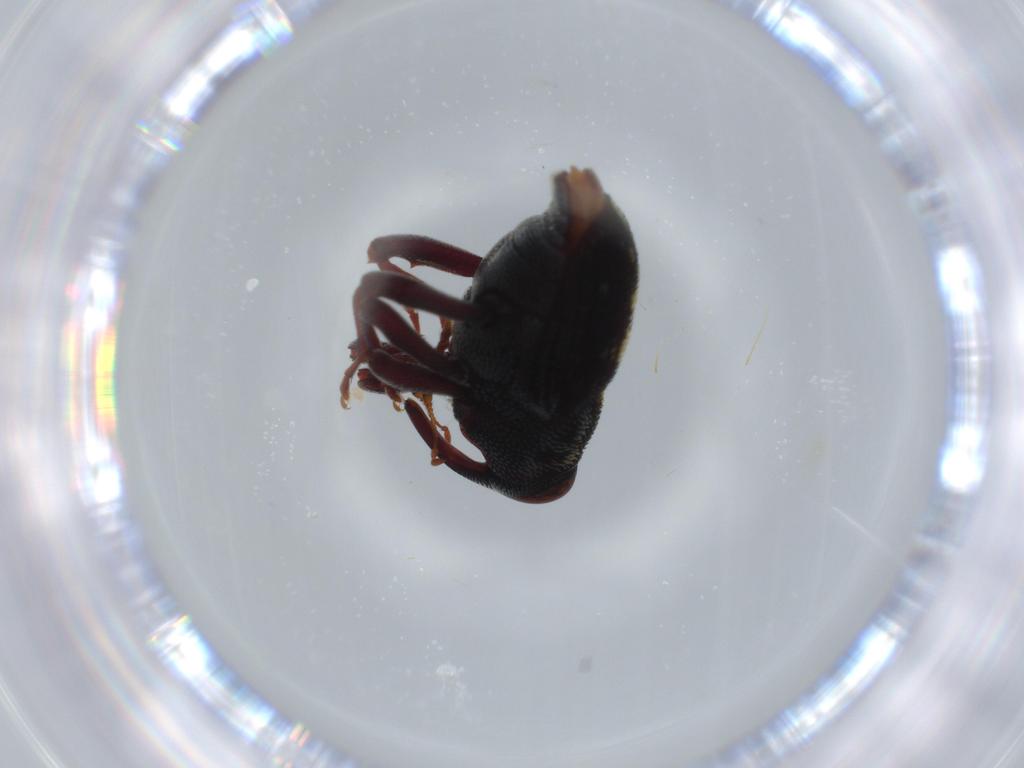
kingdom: Animalia
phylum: Arthropoda
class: Insecta
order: Coleoptera
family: Curculionidae
